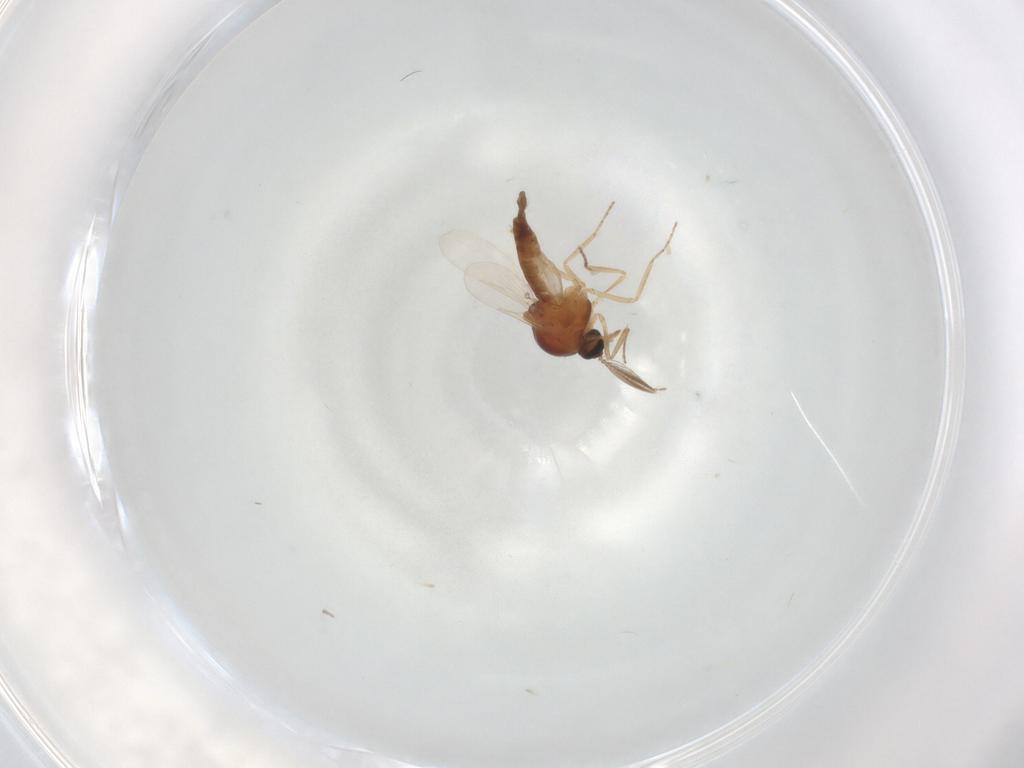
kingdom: Animalia
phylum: Arthropoda
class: Insecta
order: Diptera
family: Ceratopogonidae
